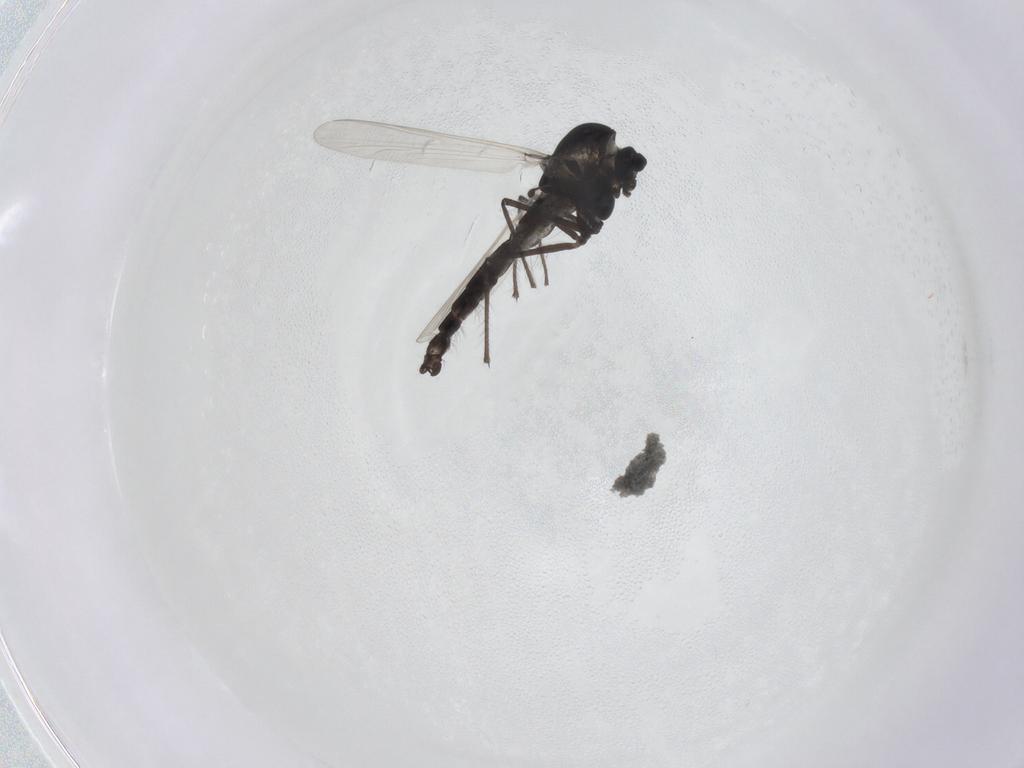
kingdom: Animalia
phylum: Arthropoda
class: Insecta
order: Diptera
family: Chironomidae
